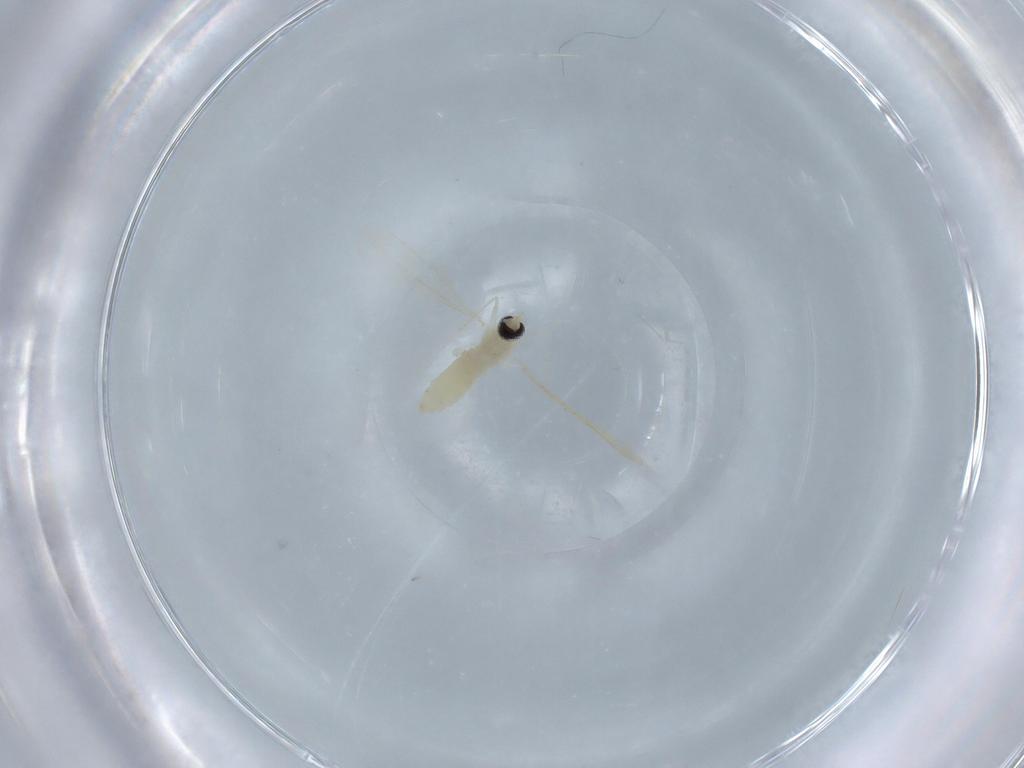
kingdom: Animalia
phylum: Arthropoda
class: Insecta
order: Diptera
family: Cecidomyiidae
